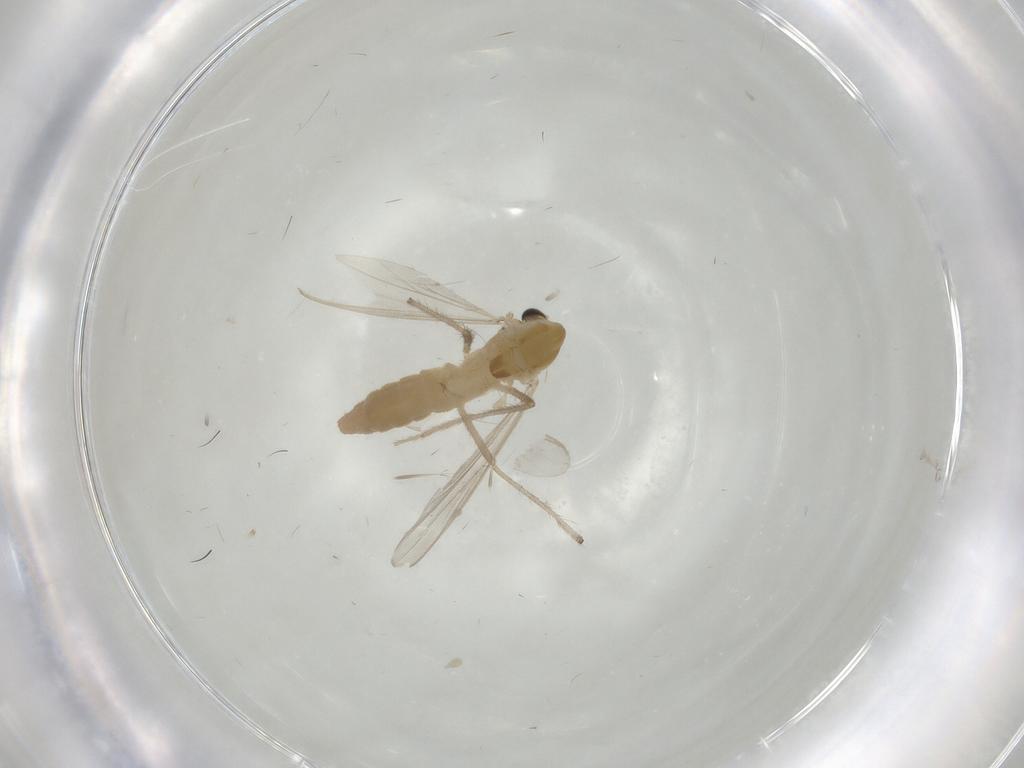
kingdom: Animalia
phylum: Arthropoda
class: Insecta
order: Diptera
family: Chironomidae
